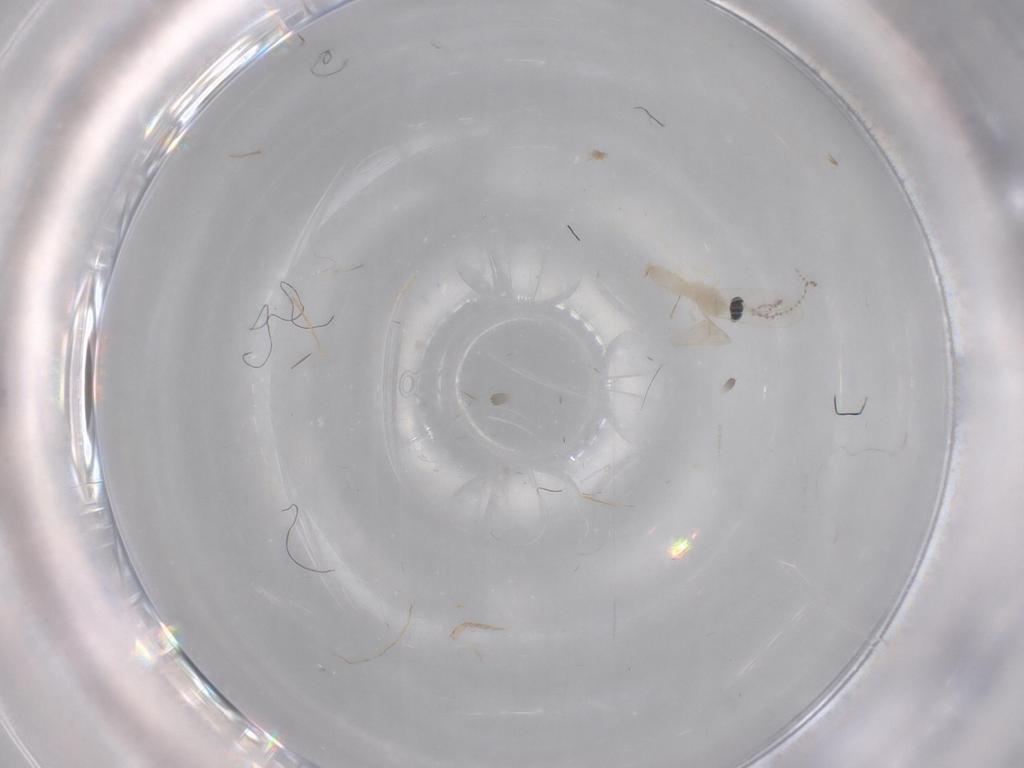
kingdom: Animalia
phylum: Arthropoda
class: Insecta
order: Diptera
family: Cecidomyiidae
